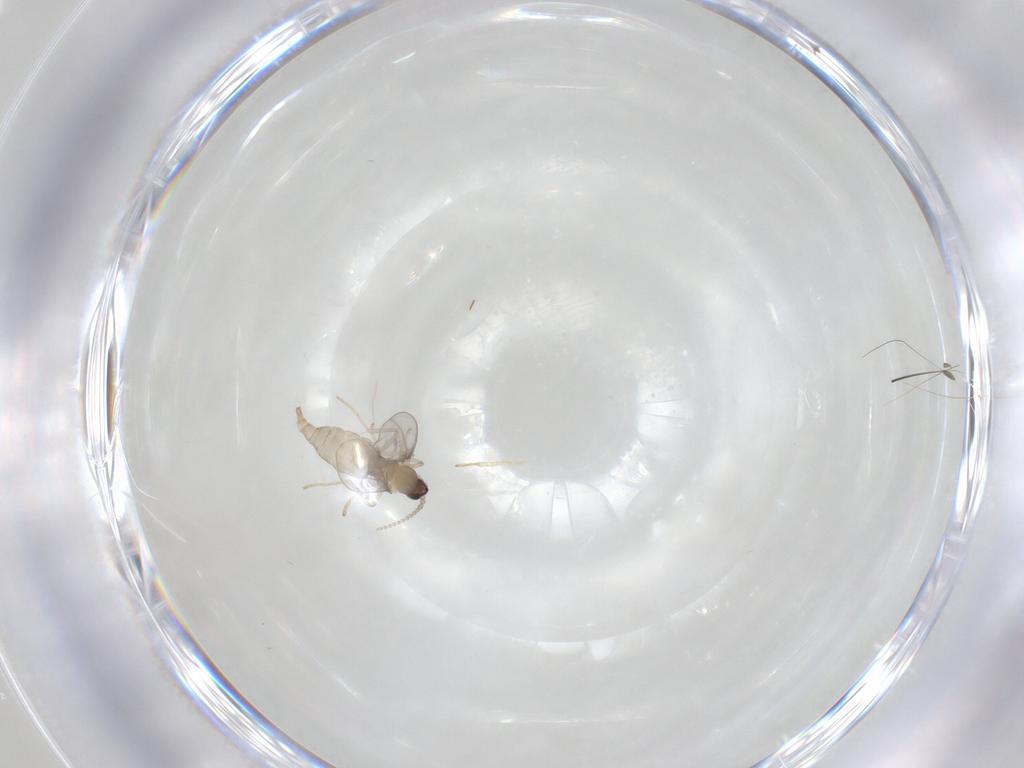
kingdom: Animalia
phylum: Arthropoda
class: Insecta
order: Diptera
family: Cecidomyiidae
